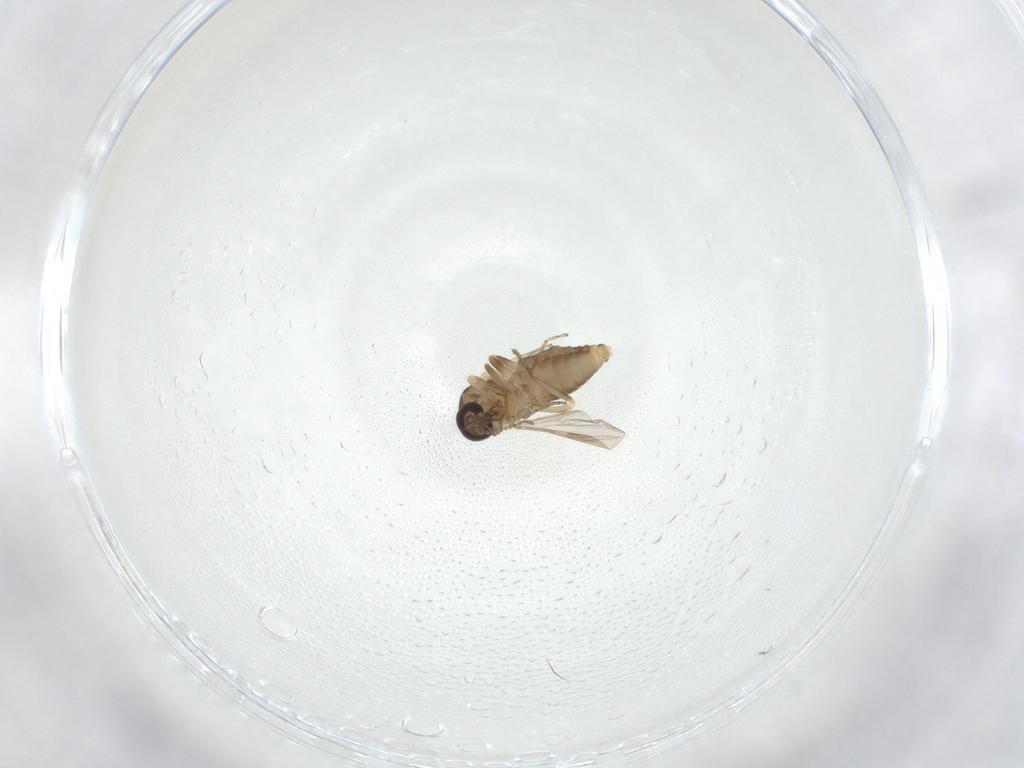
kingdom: Animalia
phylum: Arthropoda
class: Insecta
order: Diptera
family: Ceratopogonidae
